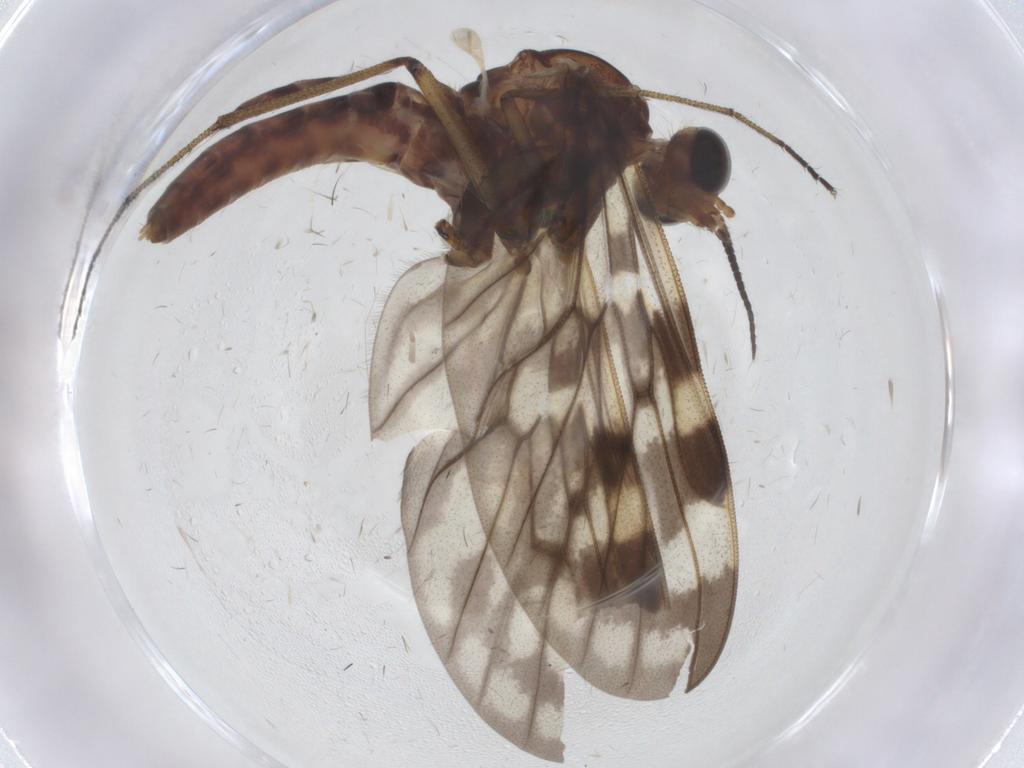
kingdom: Animalia
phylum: Arthropoda
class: Insecta
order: Diptera
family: Chironomidae
